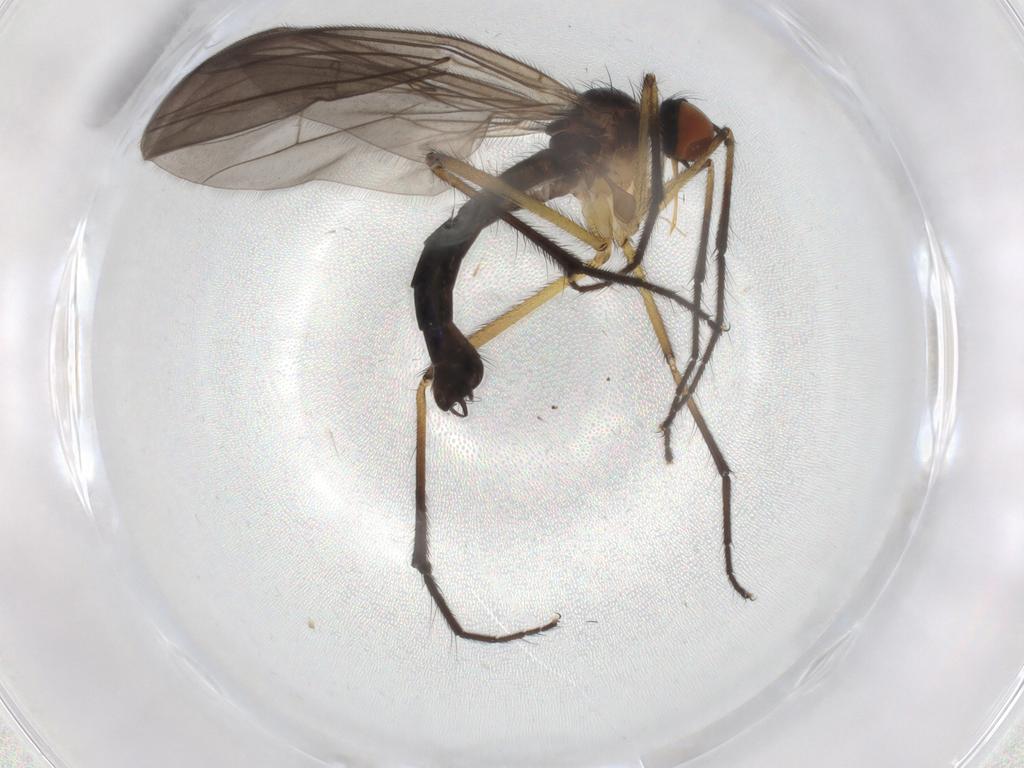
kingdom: Animalia
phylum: Arthropoda
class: Insecta
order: Diptera
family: Empididae
